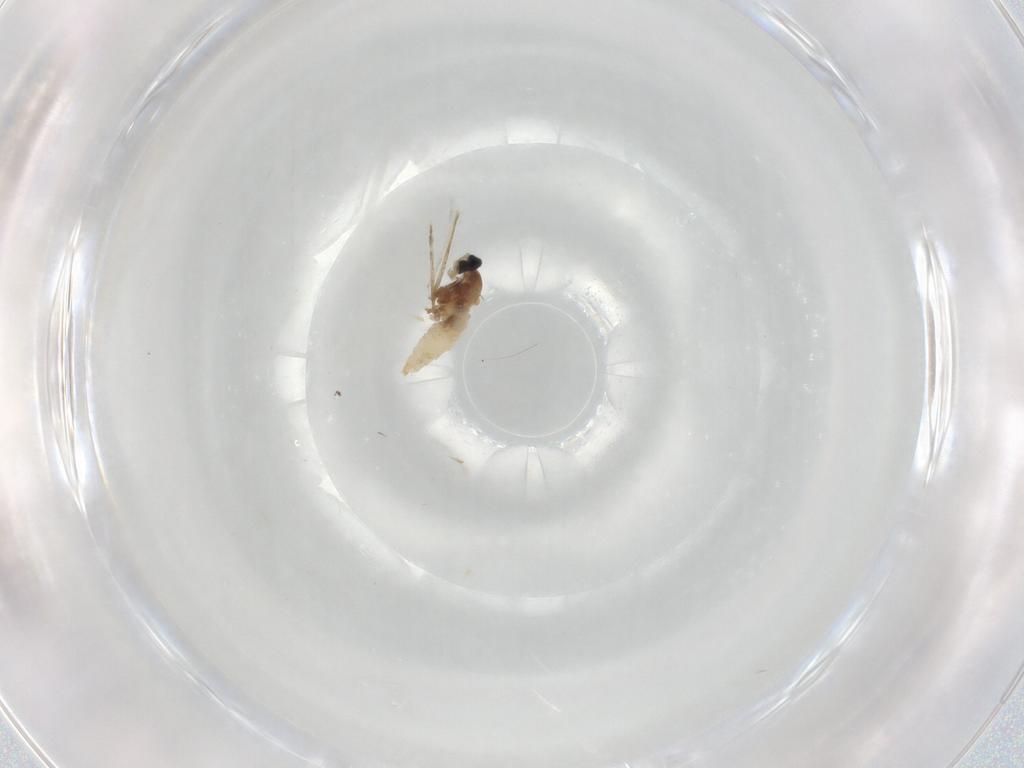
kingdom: Animalia
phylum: Arthropoda
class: Insecta
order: Diptera
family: Cecidomyiidae
